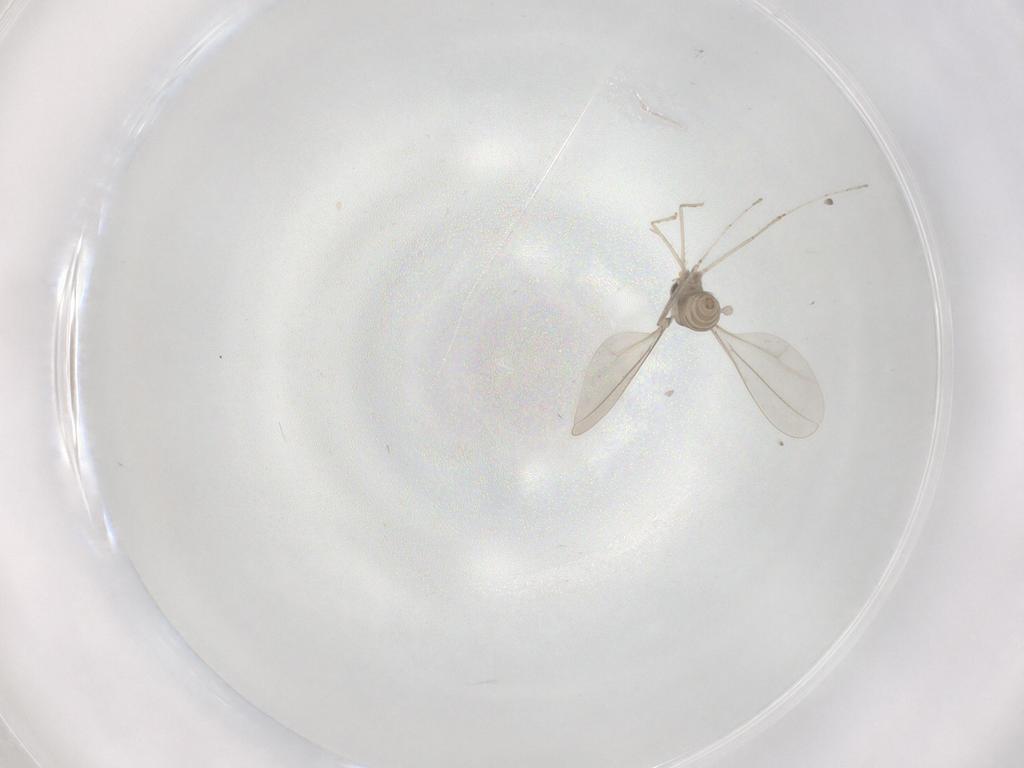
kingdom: Animalia
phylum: Arthropoda
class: Insecta
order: Diptera
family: Cecidomyiidae
